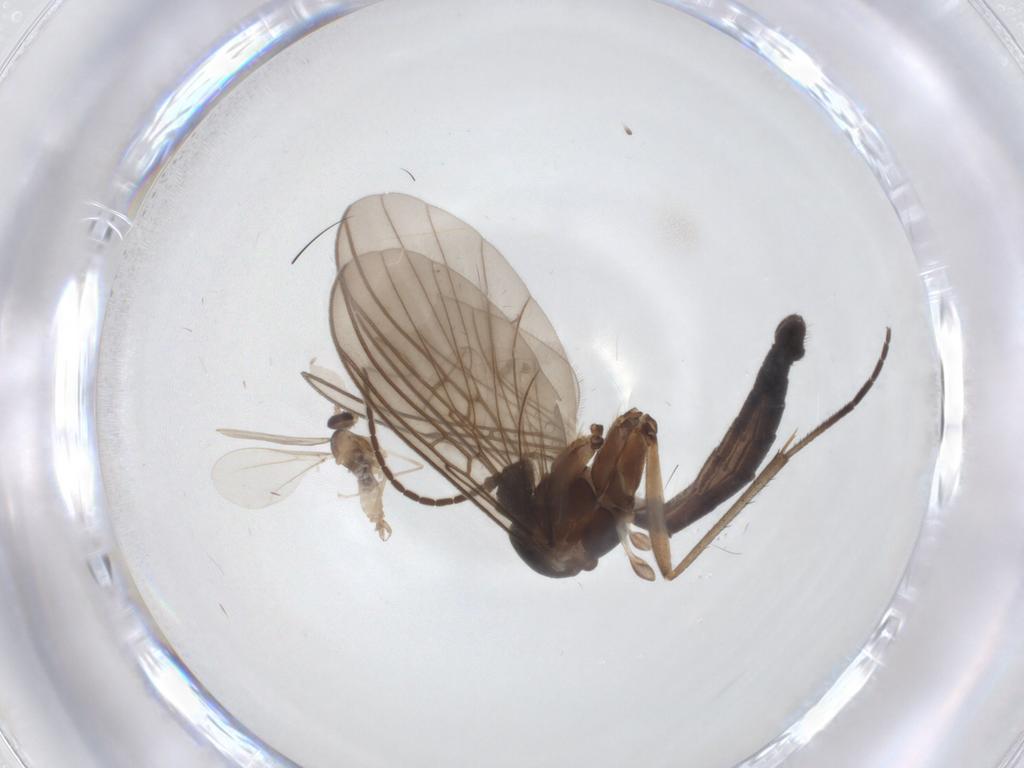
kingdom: Animalia
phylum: Arthropoda
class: Insecta
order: Diptera
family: Cecidomyiidae
